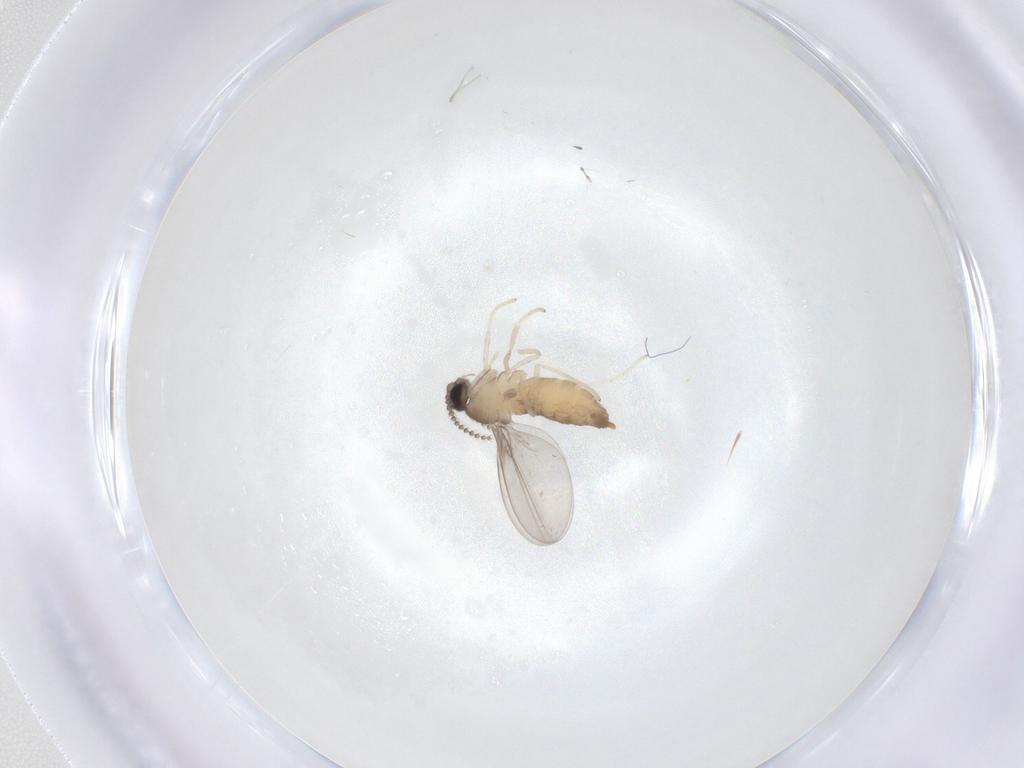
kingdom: Animalia
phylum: Arthropoda
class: Insecta
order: Diptera
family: Cecidomyiidae
